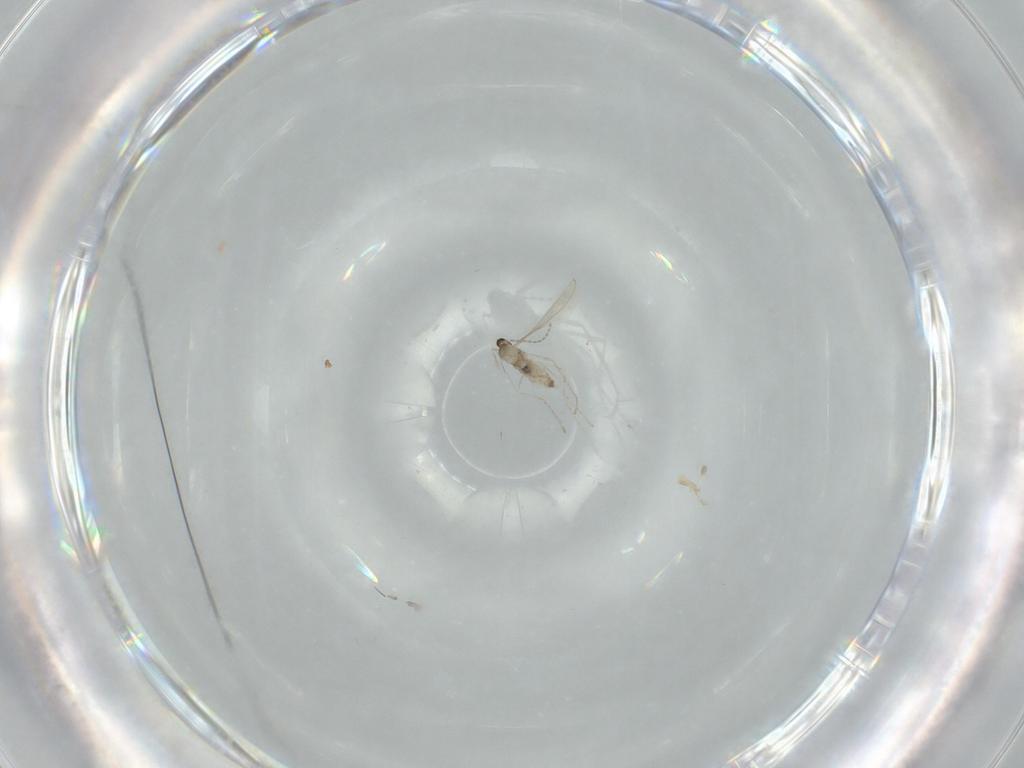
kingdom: Animalia
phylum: Arthropoda
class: Insecta
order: Diptera
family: Cecidomyiidae
